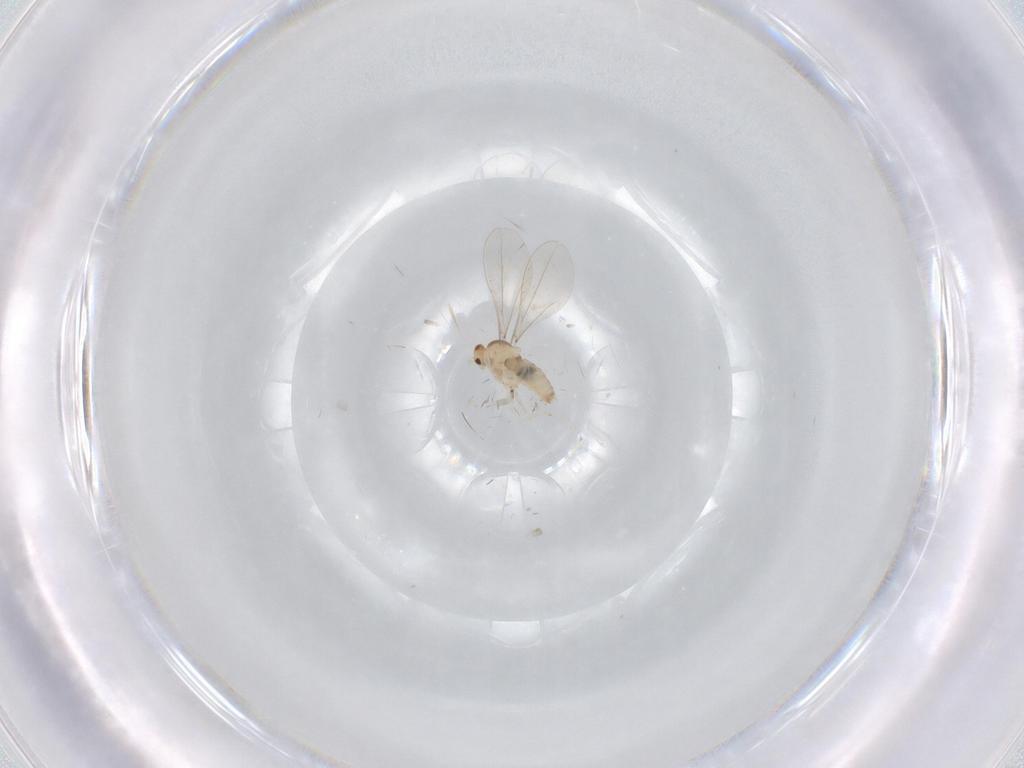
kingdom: Animalia
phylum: Arthropoda
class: Insecta
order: Diptera
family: Cecidomyiidae
